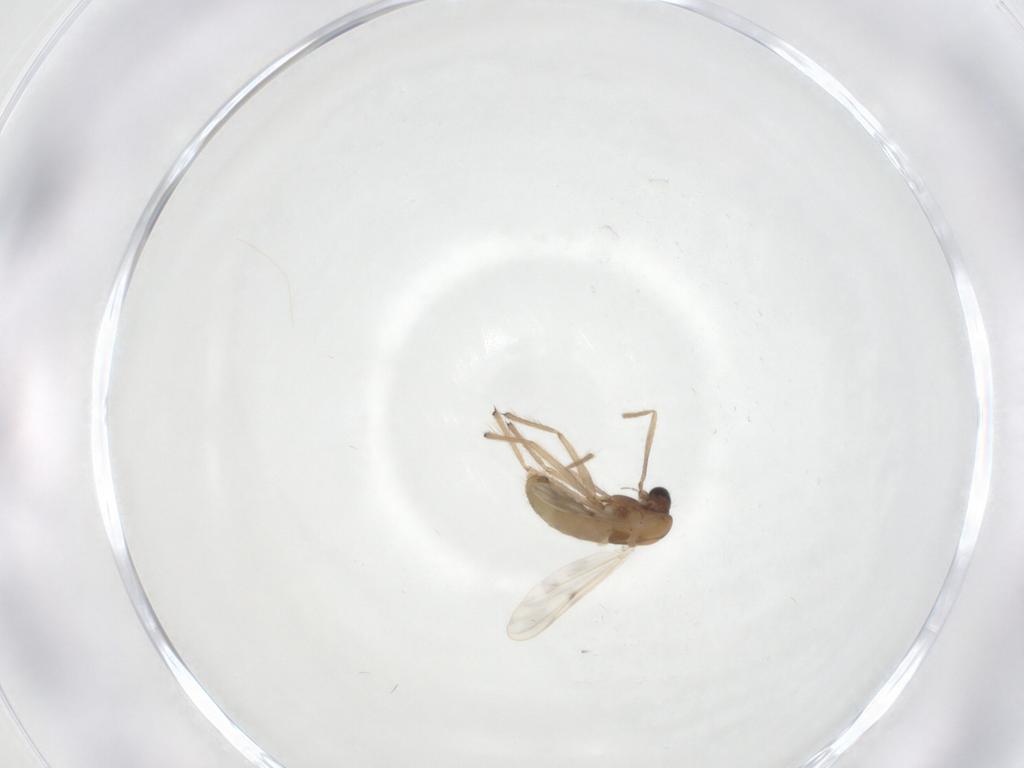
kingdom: Animalia
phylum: Arthropoda
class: Insecta
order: Diptera
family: Chironomidae
